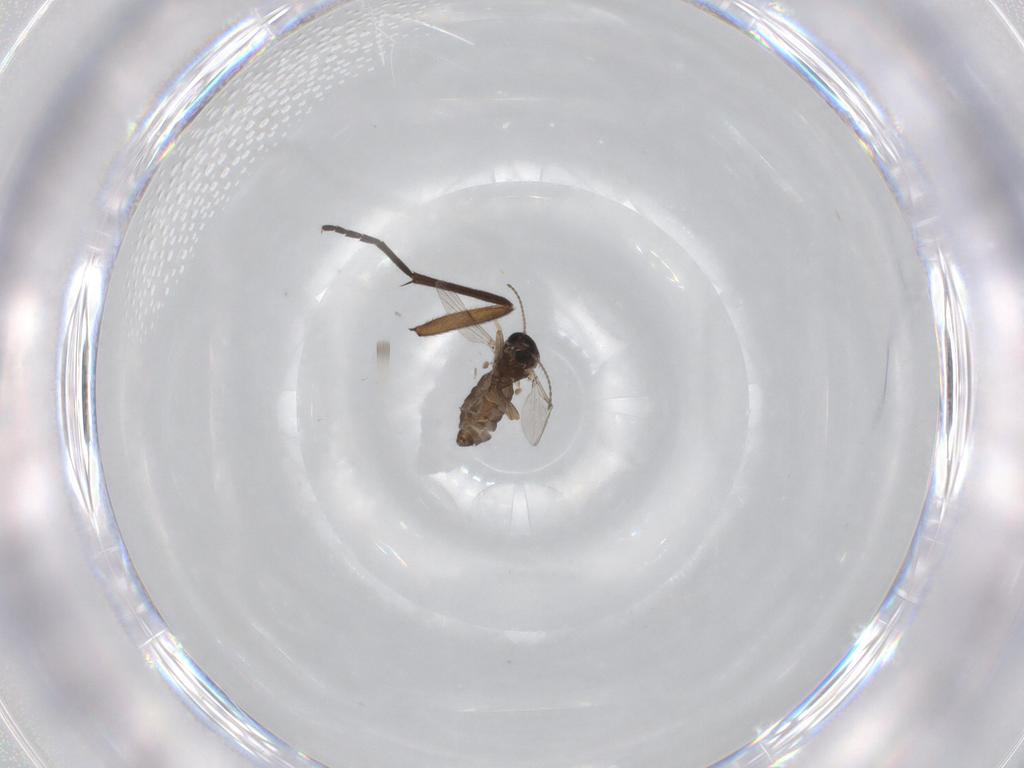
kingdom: Animalia
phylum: Arthropoda
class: Insecta
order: Diptera
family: Ceratopogonidae
